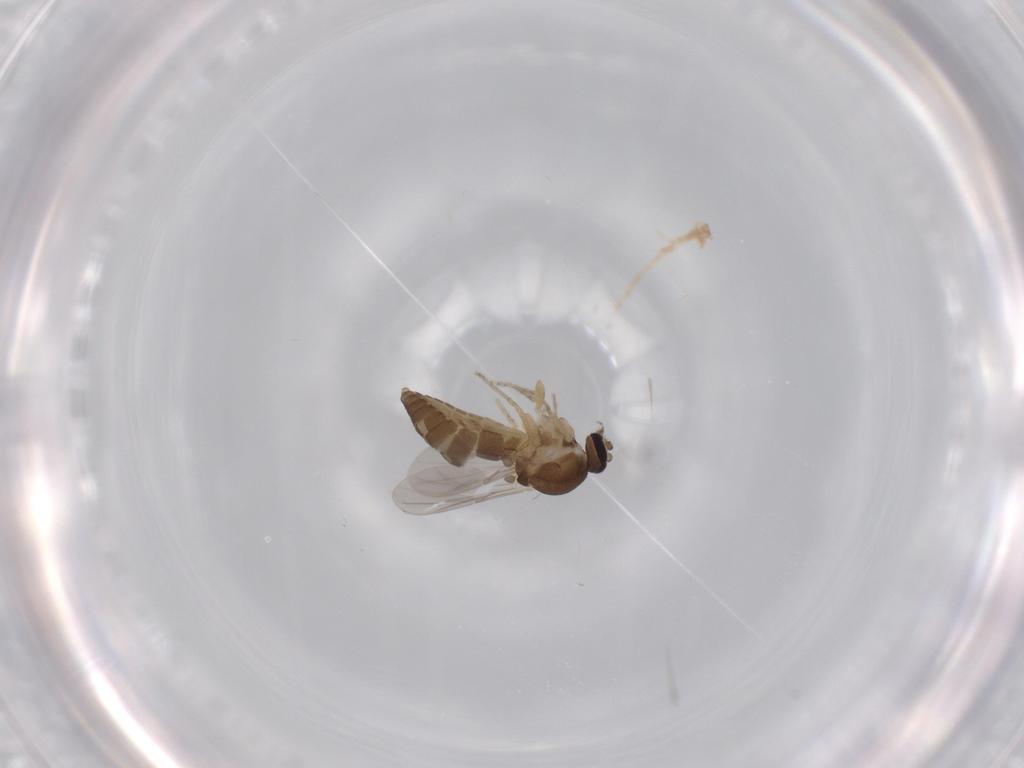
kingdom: Animalia
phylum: Arthropoda
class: Insecta
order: Diptera
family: Ceratopogonidae
